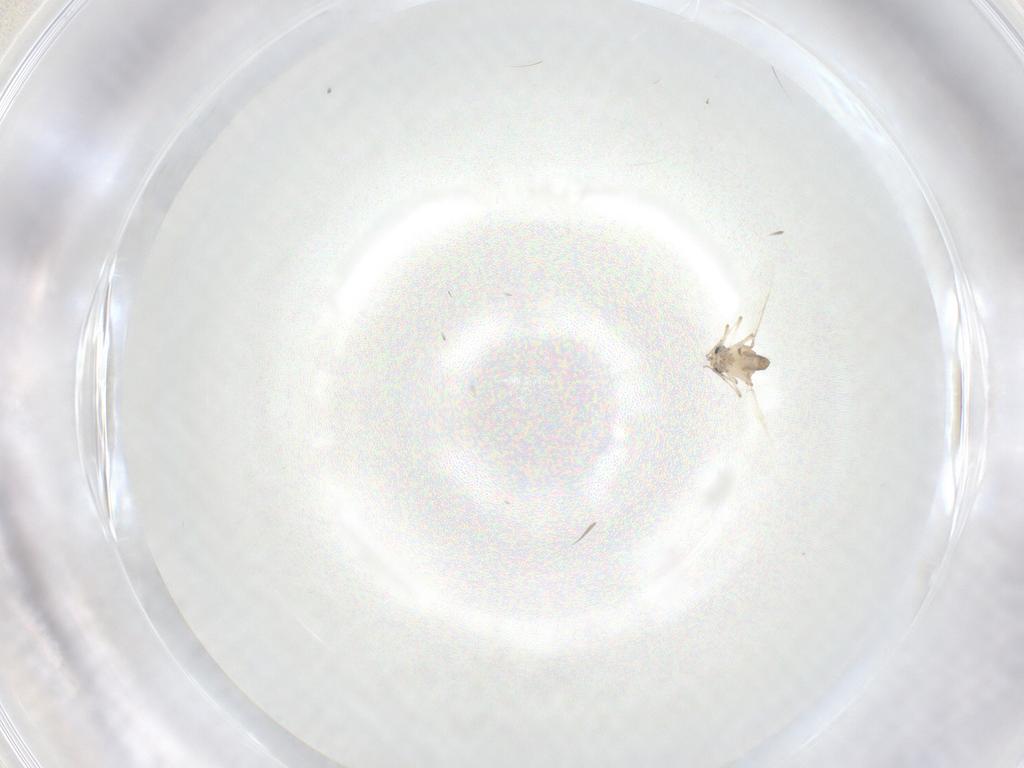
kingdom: Animalia
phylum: Arthropoda
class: Insecta
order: Diptera
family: Ceratopogonidae
